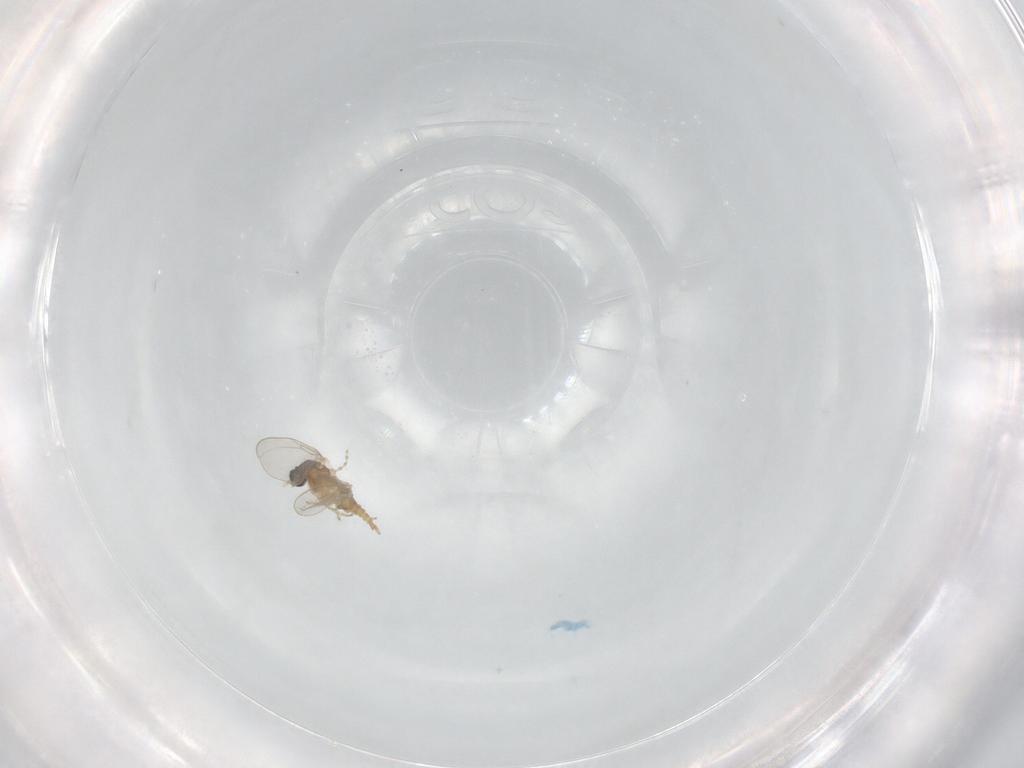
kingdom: Animalia
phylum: Arthropoda
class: Insecta
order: Diptera
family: Cecidomyiidae
